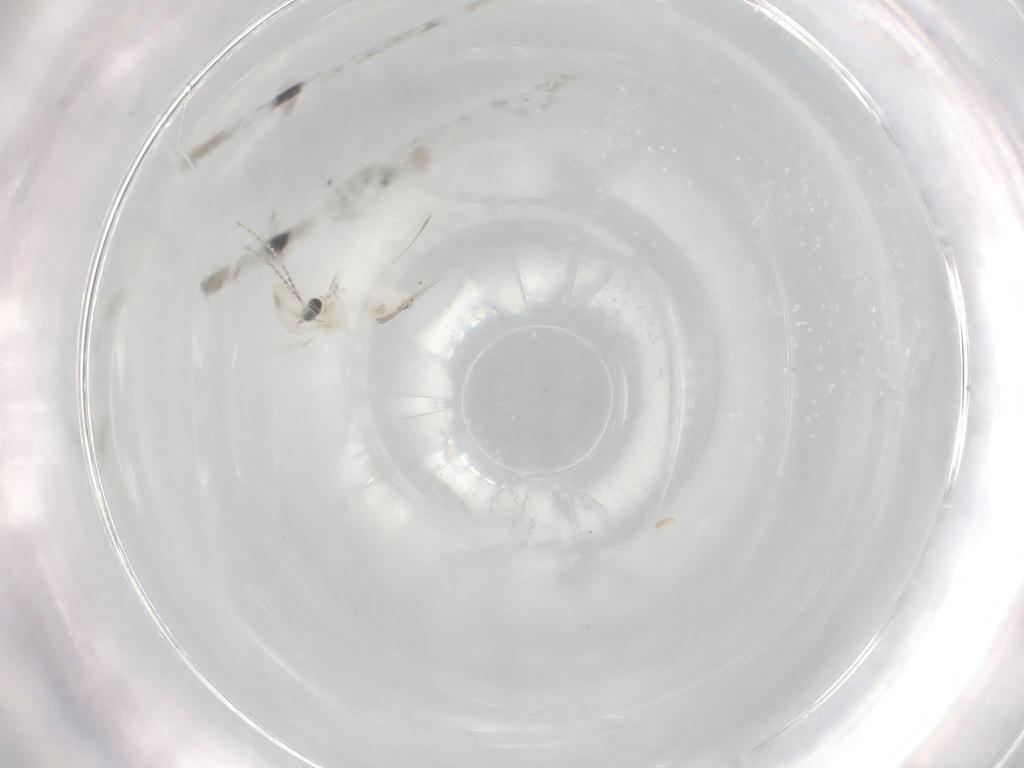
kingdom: Animalia
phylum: Arthropoda
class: Insecta
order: Diptera
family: Cecidomyiidae
